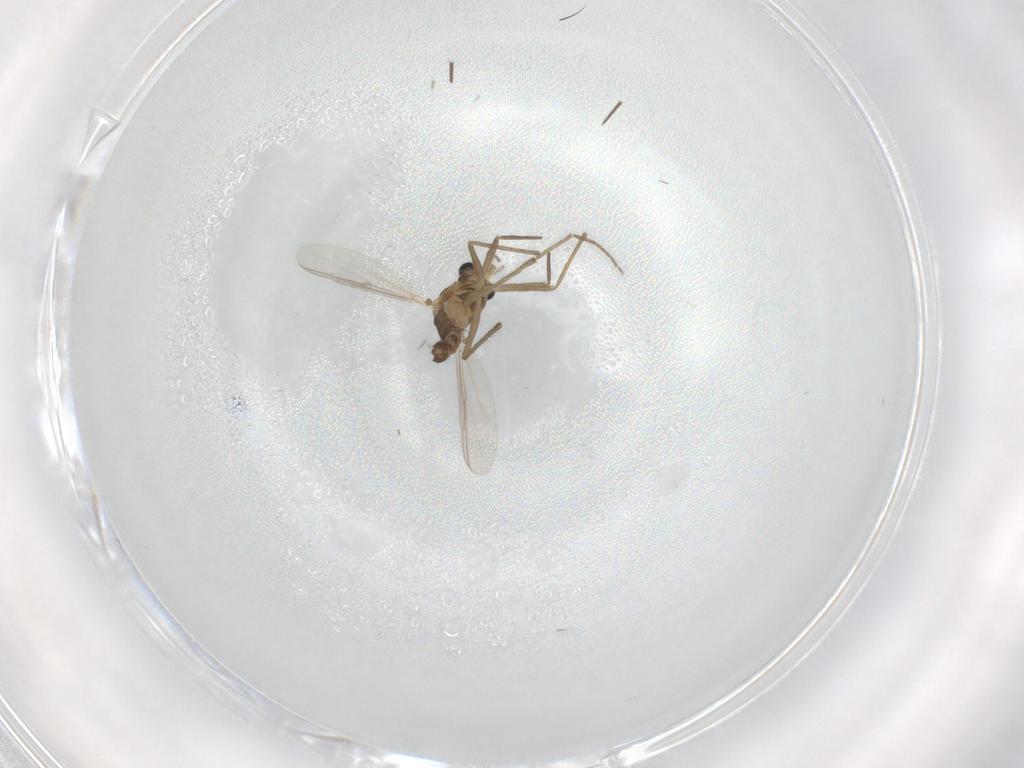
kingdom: Animalia
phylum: Arthropoda
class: Insecta
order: Diptera
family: Chironomidae
